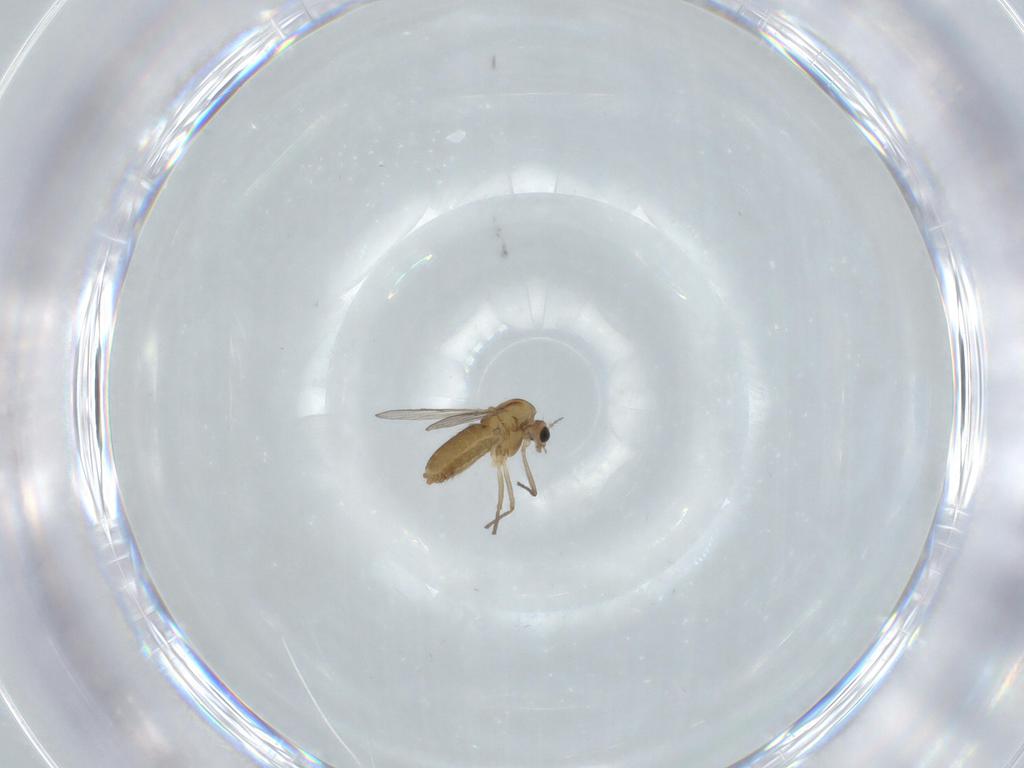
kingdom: Animalia
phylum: Arthropoda
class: Insecta
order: Diptera
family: Chironomidae
